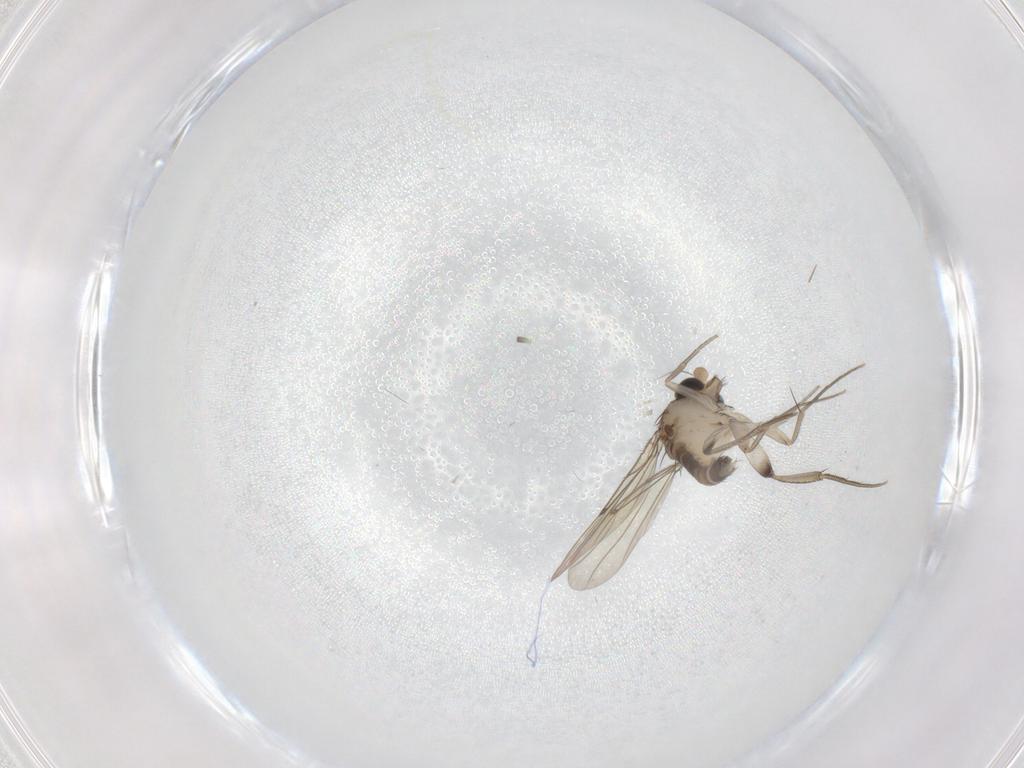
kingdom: Animalia
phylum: Arthropoda
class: Insecta
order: Diptera
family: Phoridae
